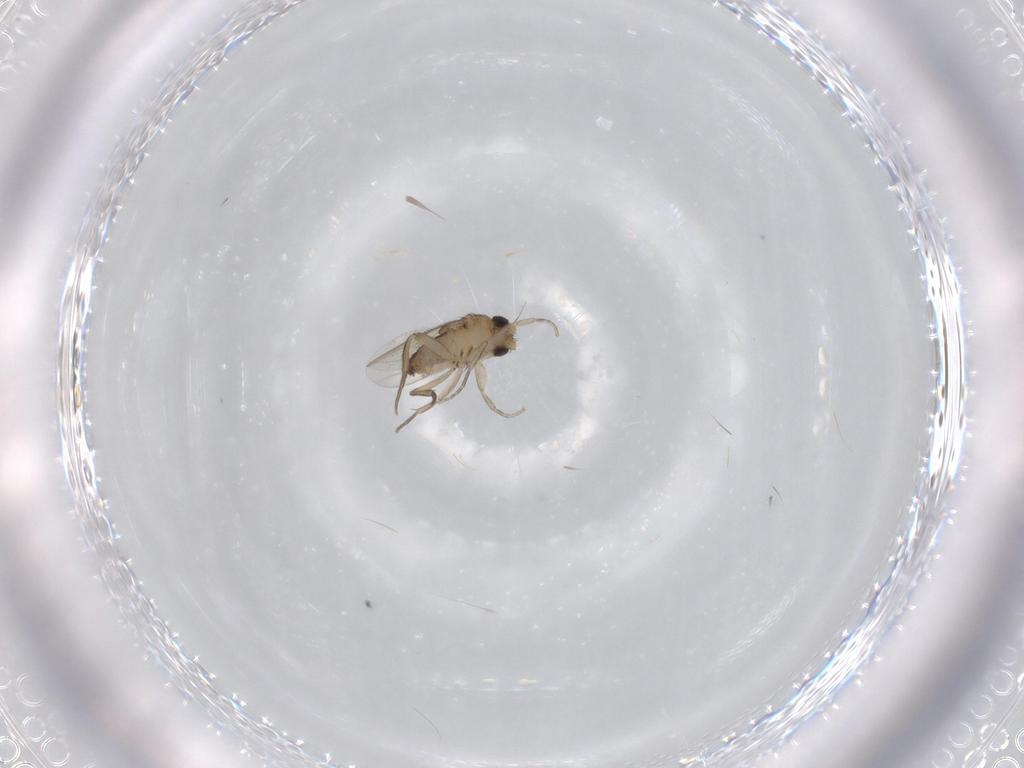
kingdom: Animalia
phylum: Arthropoda
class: Insecta
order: Diptera
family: Phoridae
